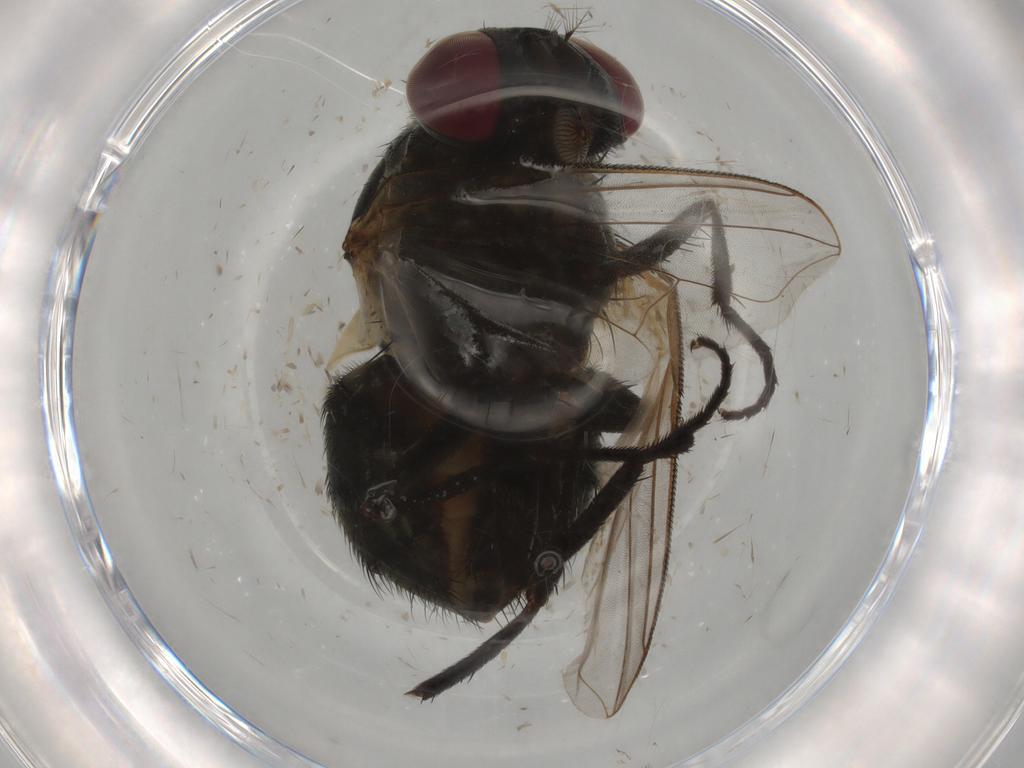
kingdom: Animalia
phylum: Arthropoda
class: Insecta
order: Diptera
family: Muscidae
